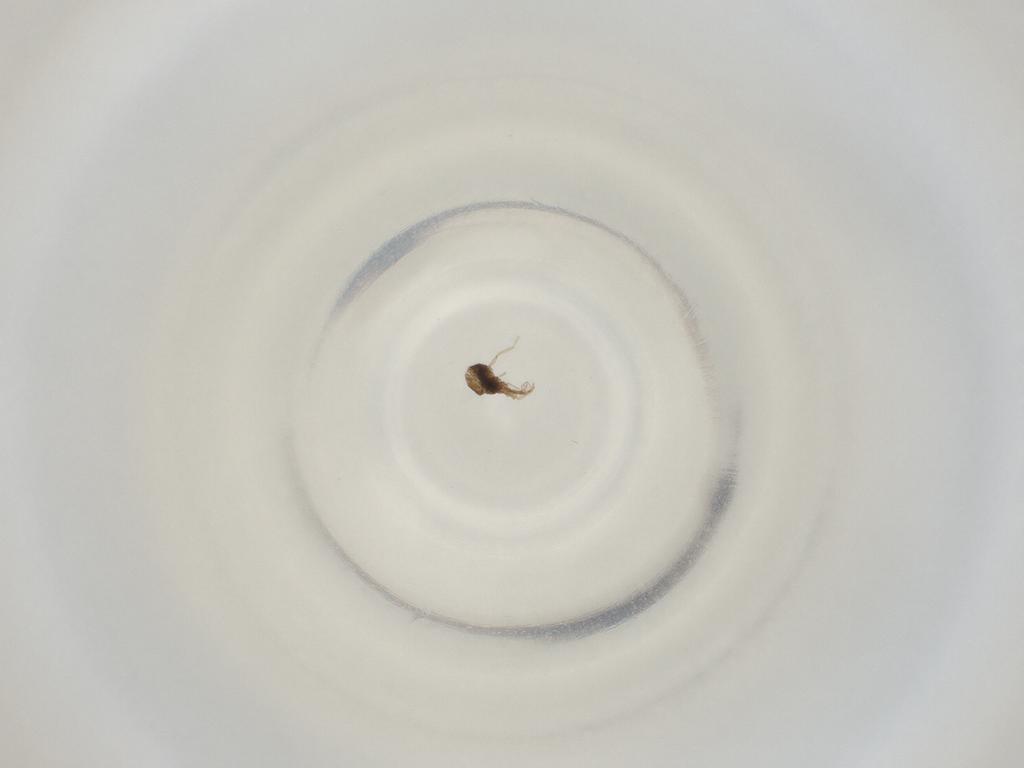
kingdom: Animalia
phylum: Arthropoda
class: Insecta
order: Diptera
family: Cecidomyiidae
